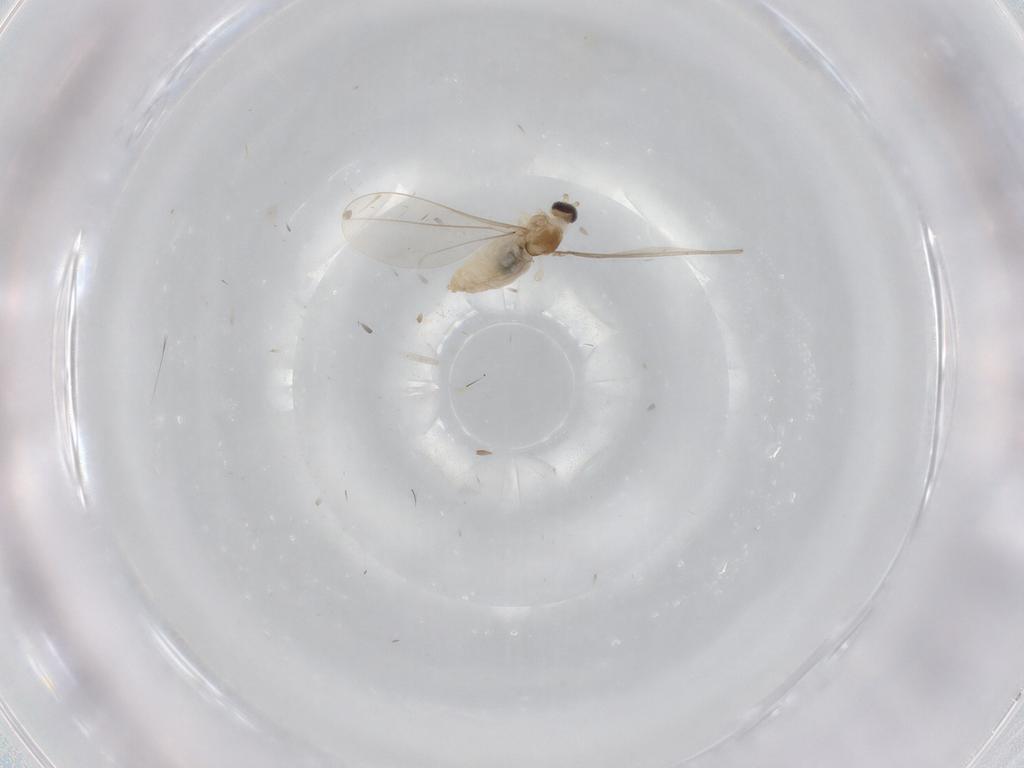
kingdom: Animalia
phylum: Arthropoda
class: Insecta
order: Diptera
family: Cecidomyiidae
